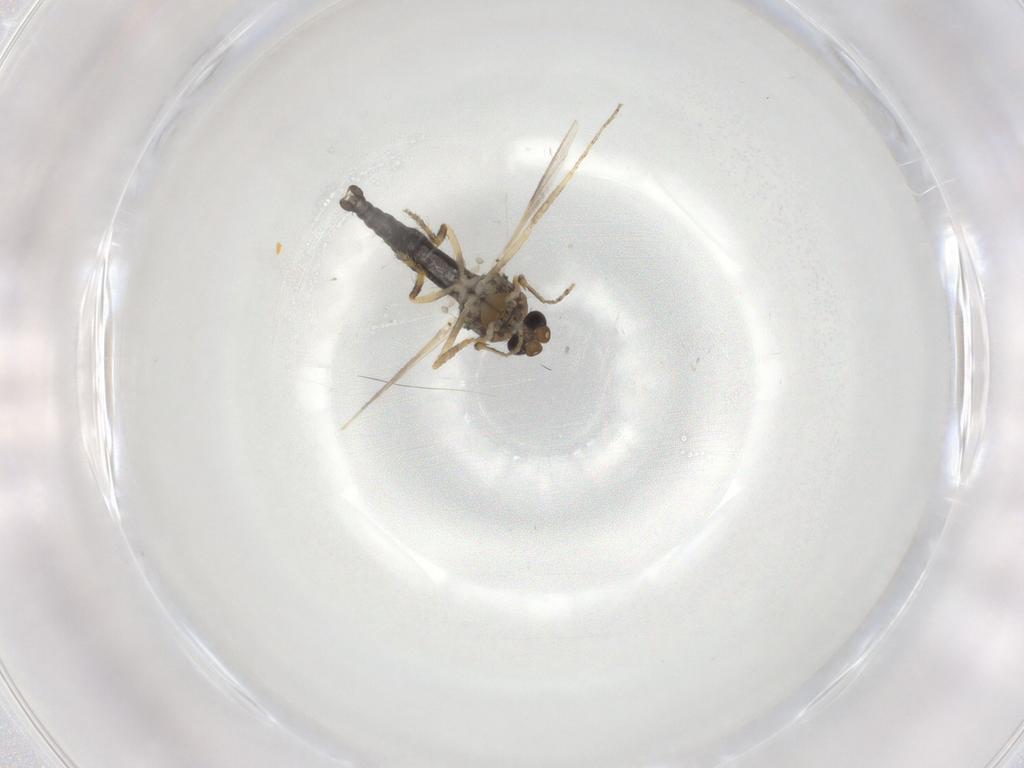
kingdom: Animalia
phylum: Arthropoda
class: Insecta
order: Diptera
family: Ceratopogonidae
